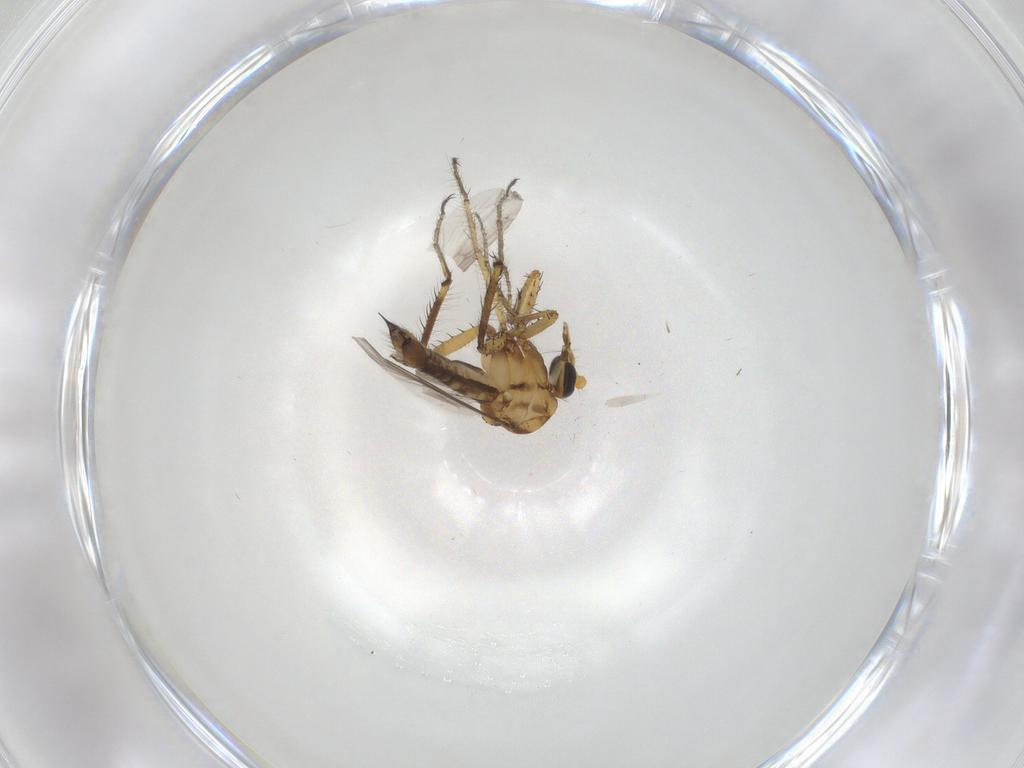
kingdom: Animalia
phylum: Arthropoda
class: Insecta
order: Diptera
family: Ceratopogonidae
